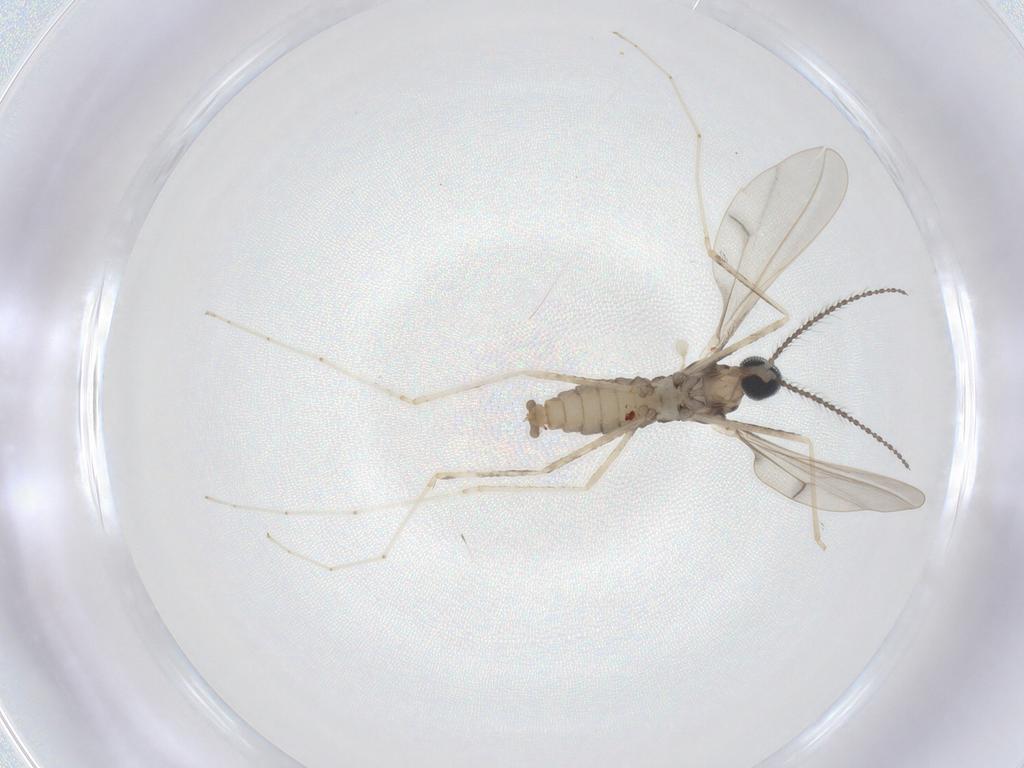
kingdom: Animalia
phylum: Arthropoda
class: Insecta
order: Diptera
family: Cecidomyiidae
